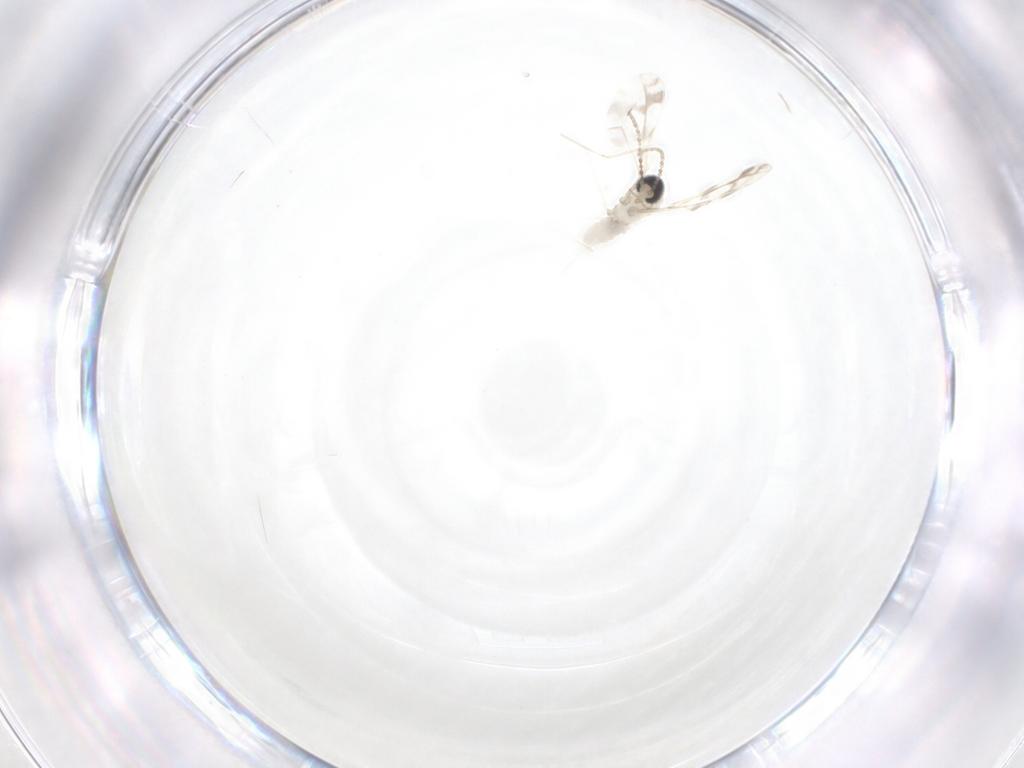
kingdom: Animalia
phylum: Arthropoda
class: Insecta
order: Diptera
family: Cecidomyiidae
